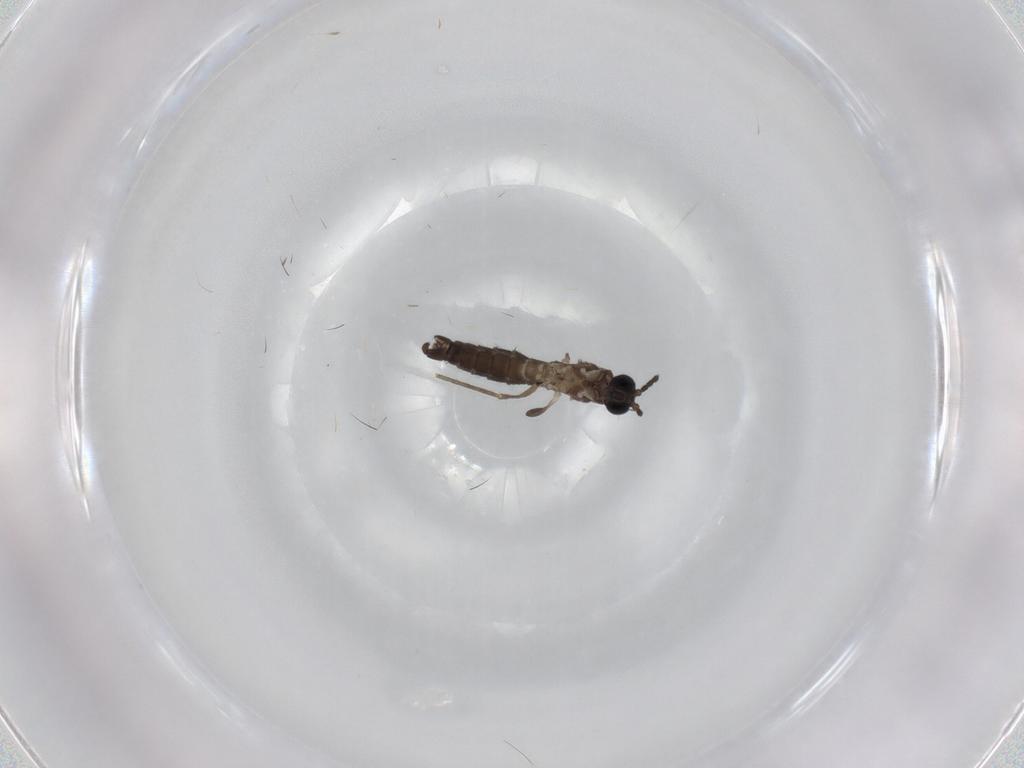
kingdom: Animalia
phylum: Arthropoda
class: Insecta
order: Diptera
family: Sciaridae
